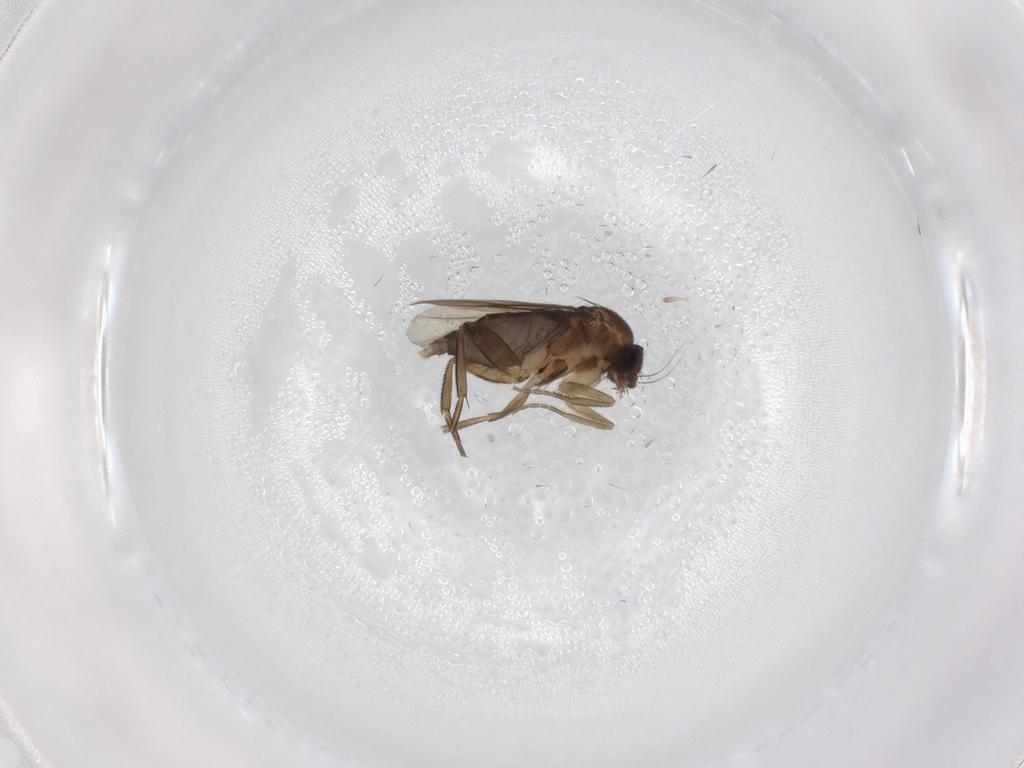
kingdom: Animalia
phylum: Arthropoda
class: Insecta
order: Diptera
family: Phoridae
